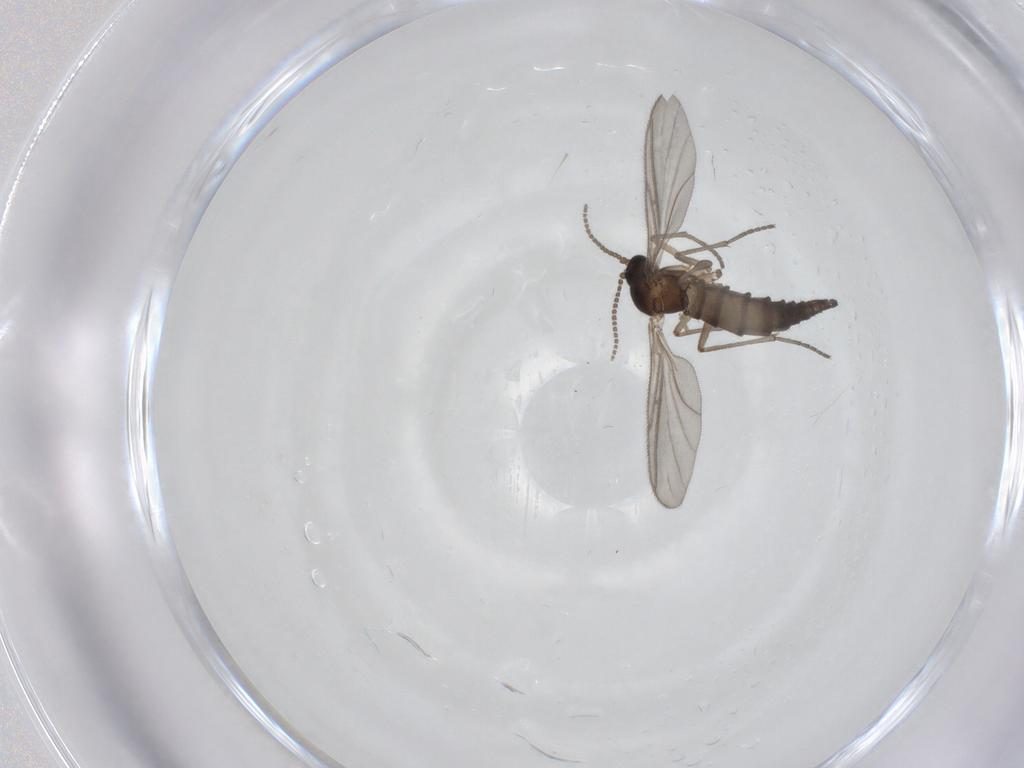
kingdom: Animalia
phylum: Arthropoda
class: Insecta
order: Diptera
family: Sciaridae
